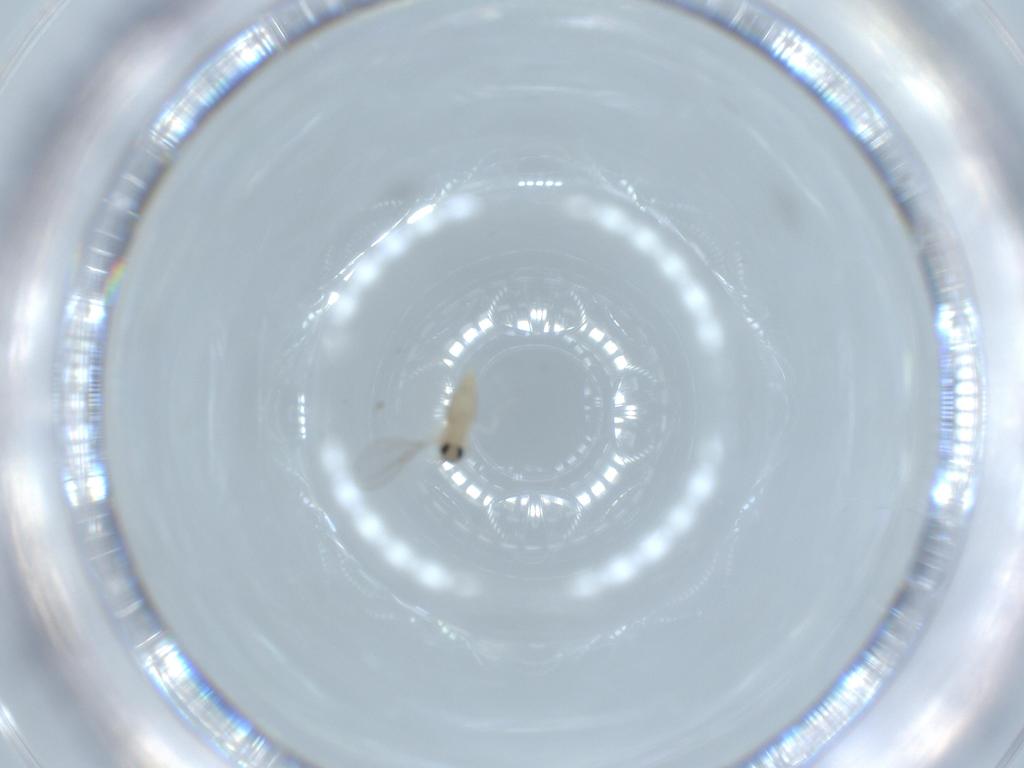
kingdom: Animalia
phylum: Arthropoda
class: Insecta
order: Diptera
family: Cecidomyiidae
